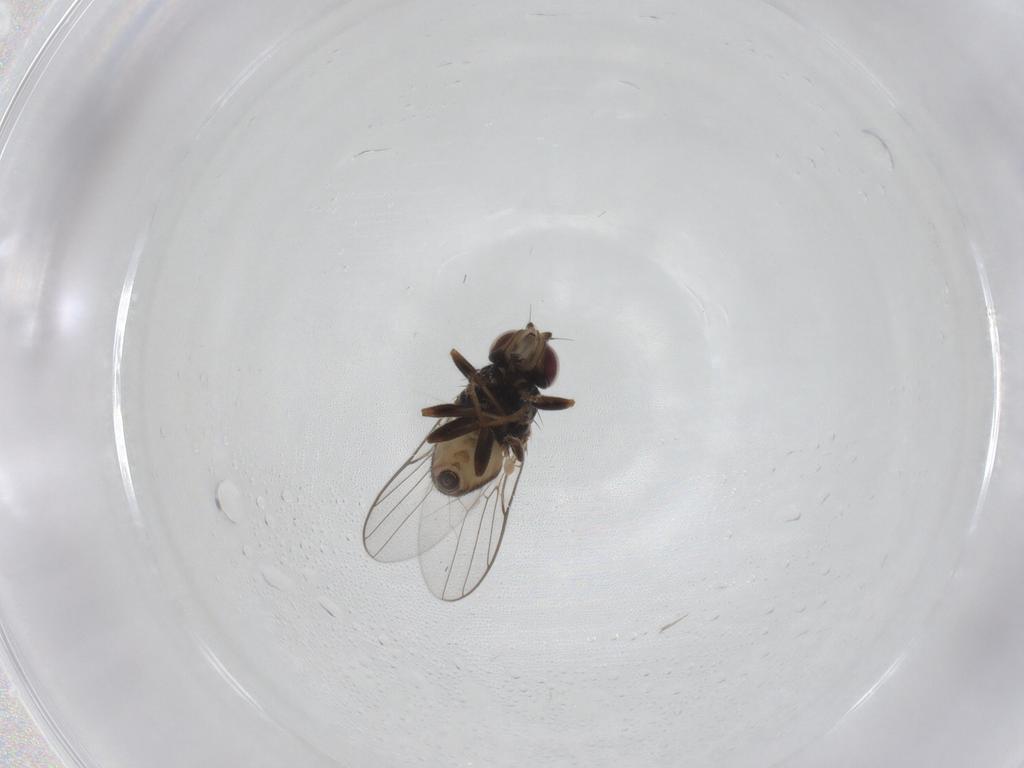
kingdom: Animalia
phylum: Arthropoda
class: Insecta
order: Diptera
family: Chloropidae
